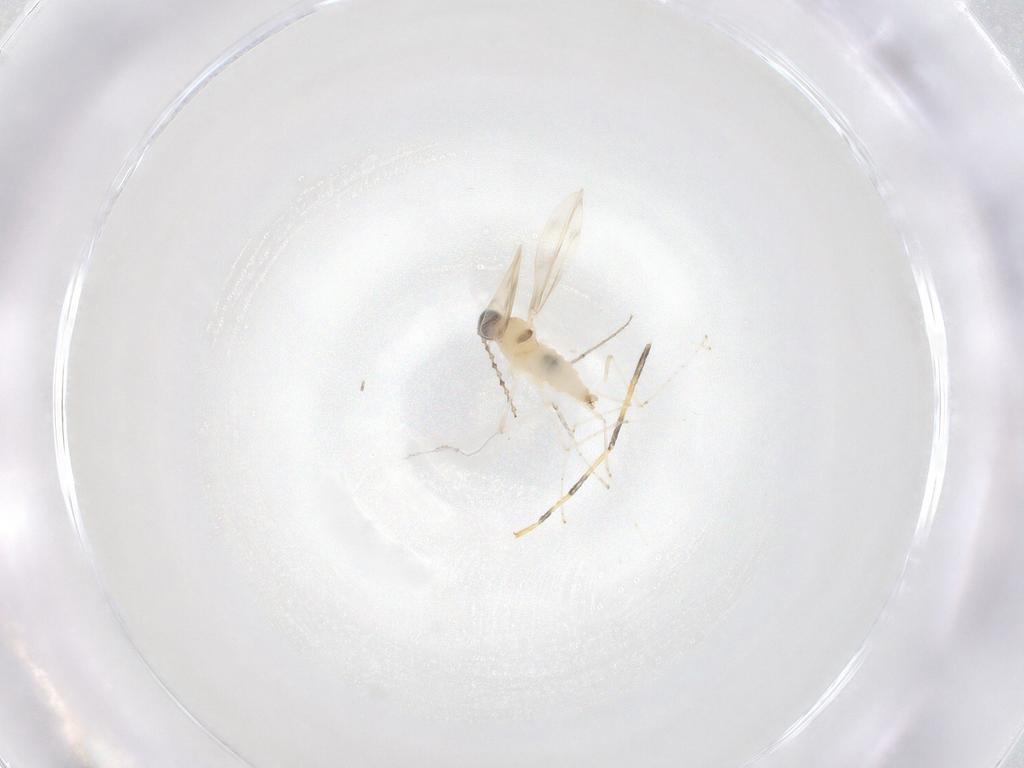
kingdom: Animalia
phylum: Arthropoda
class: Insecta
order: Diptera
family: Cecidomyiidae
